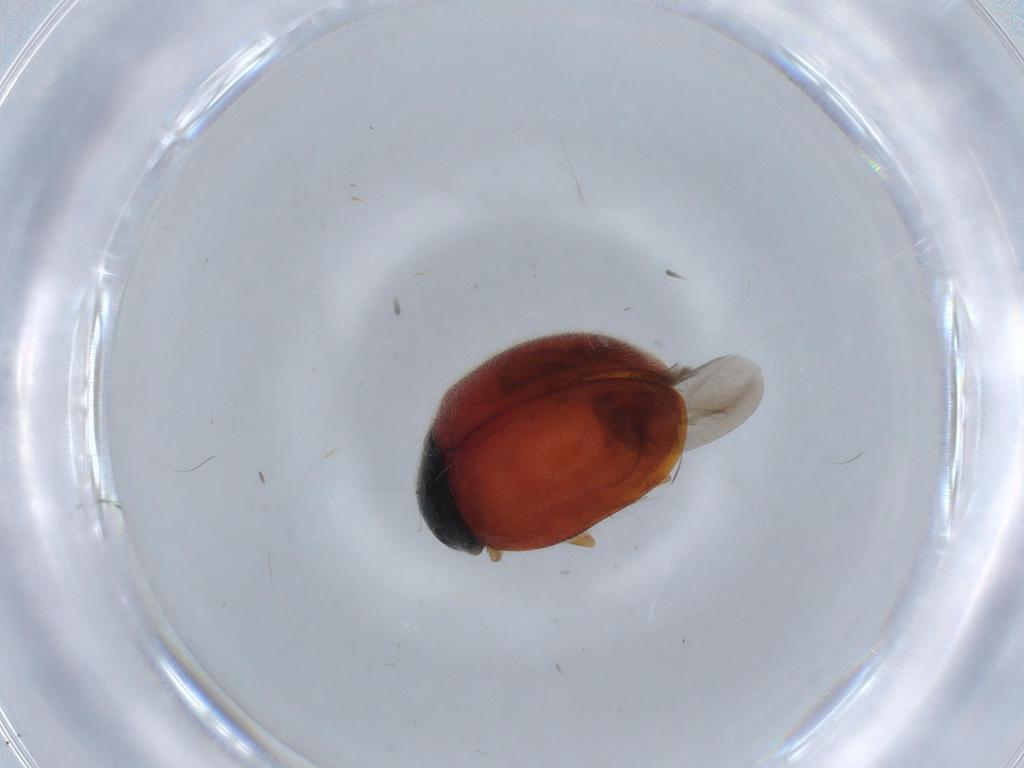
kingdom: Animalia
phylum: Arthropoda
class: Insecta
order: Coleoptera
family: Coccinellidae
